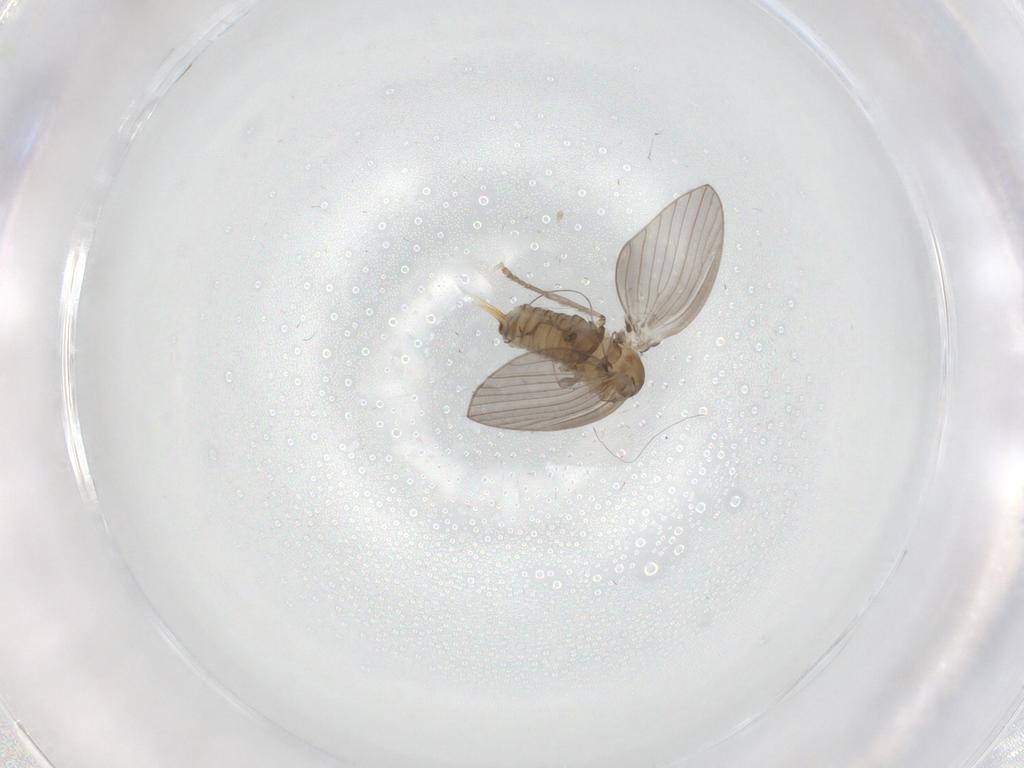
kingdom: Animalia
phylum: Arthropoda
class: Insecta
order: Diptera
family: Psychodidae
